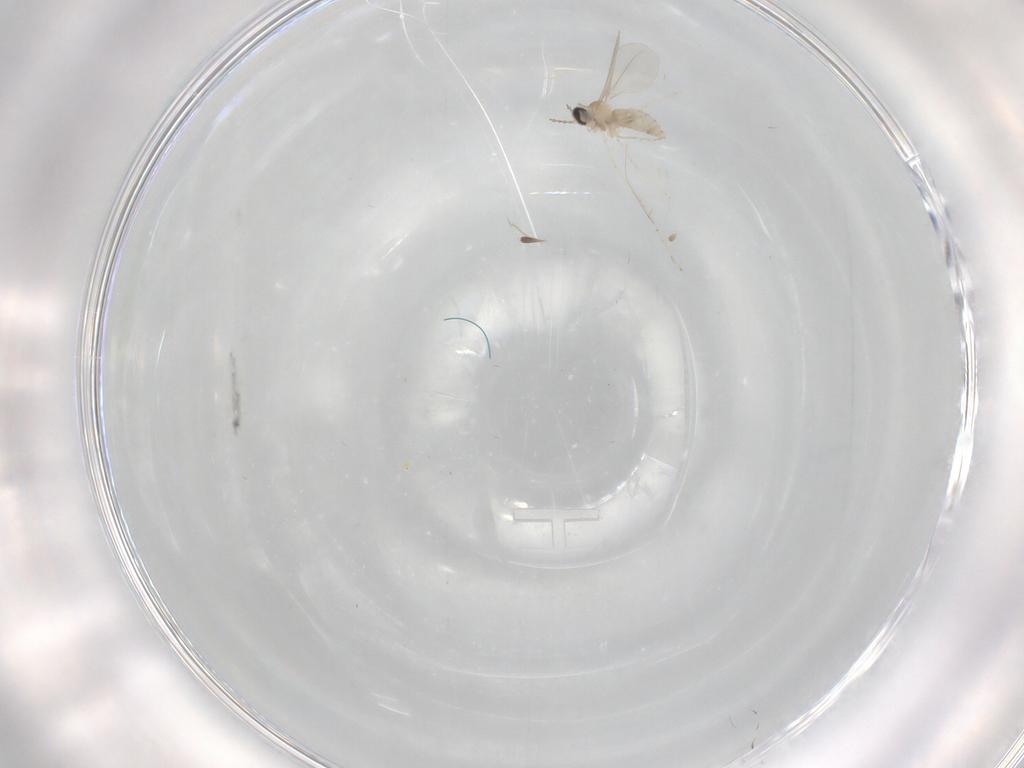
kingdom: Animalia
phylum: Arthropoda
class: Insecta
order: Diptera
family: Cecidomyiidae
